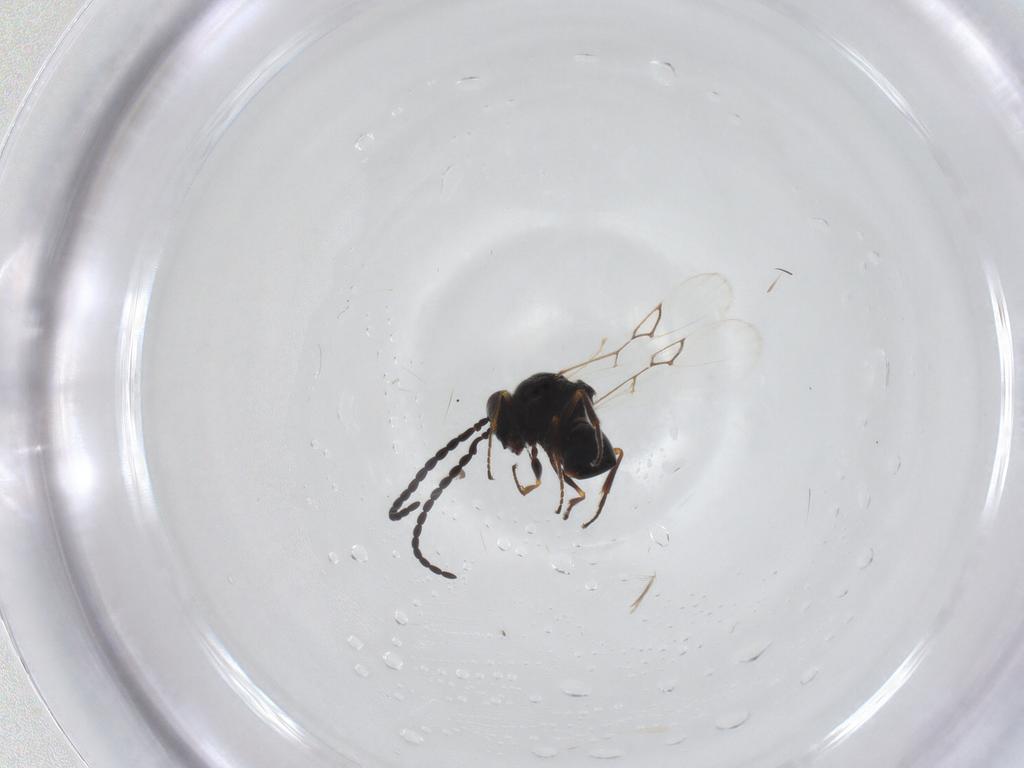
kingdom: Animalia
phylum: Arthropoda
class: Insecta
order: Hymenoptera
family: Figitidae
